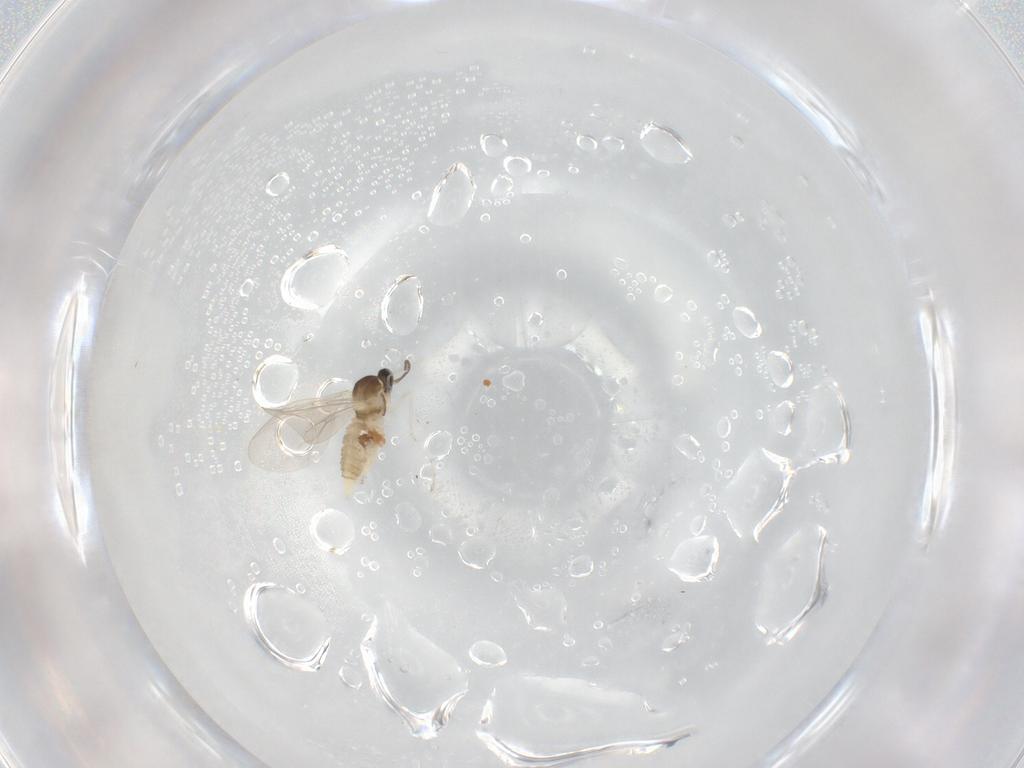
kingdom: Animalia
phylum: Arthropoda
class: Insecta
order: Diptera
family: Cecidomyiidae
